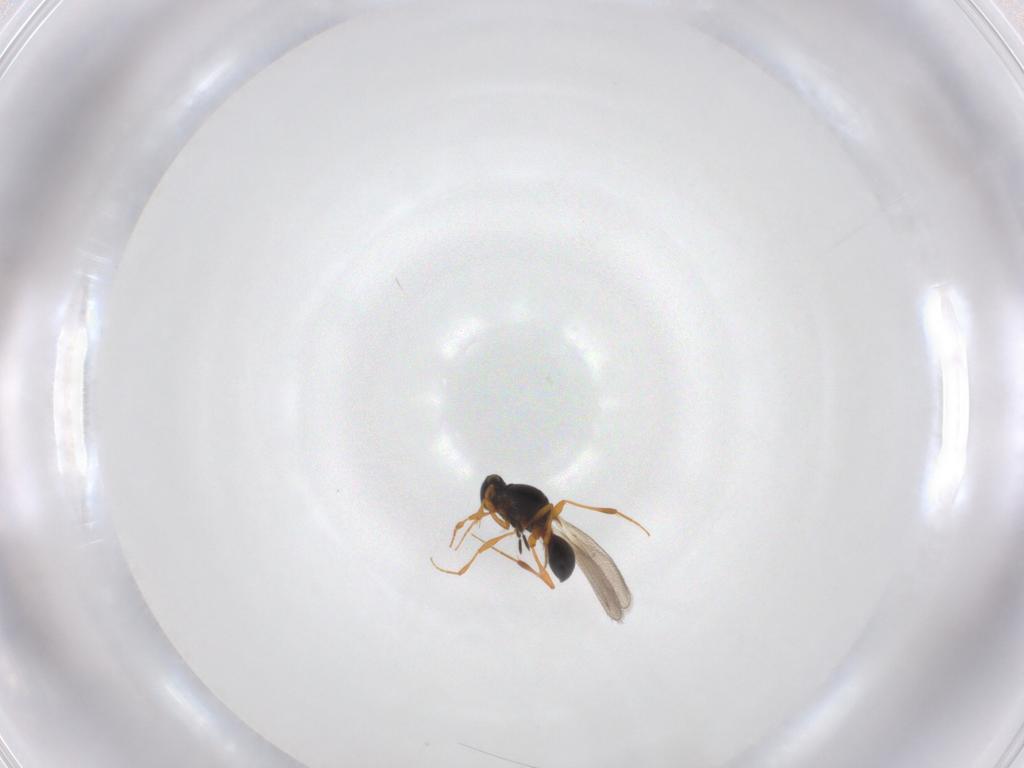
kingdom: Animalia
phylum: Arthropoda
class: Insecta
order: Hymenoptera
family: Platygastridae
